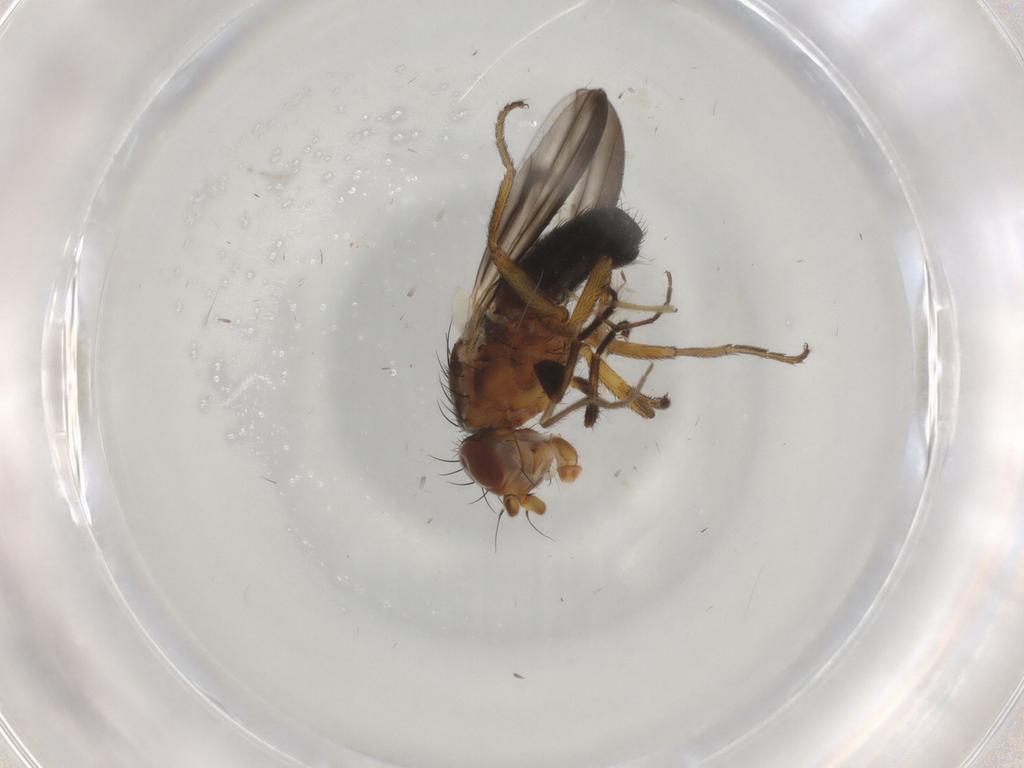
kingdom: Animalia
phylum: Arthropoda
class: Insecta
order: Diptera
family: Heleomyzidae
